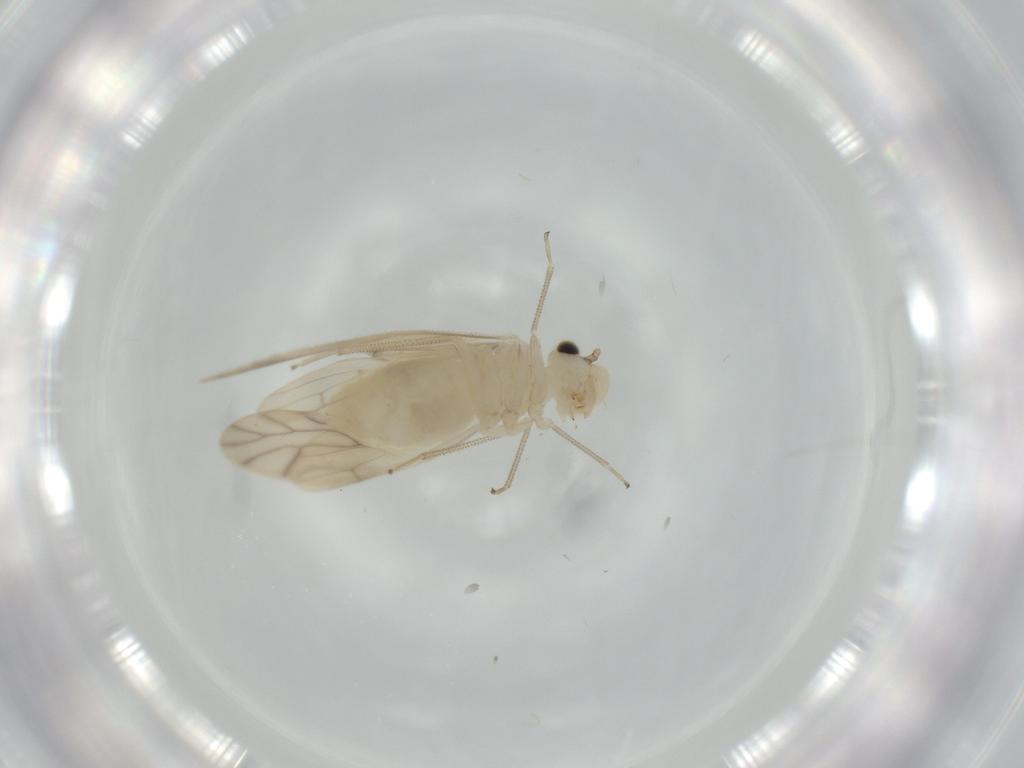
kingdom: Animalia
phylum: Arthropoda
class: Insecta
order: Psocodea
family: Caeciliusidae
